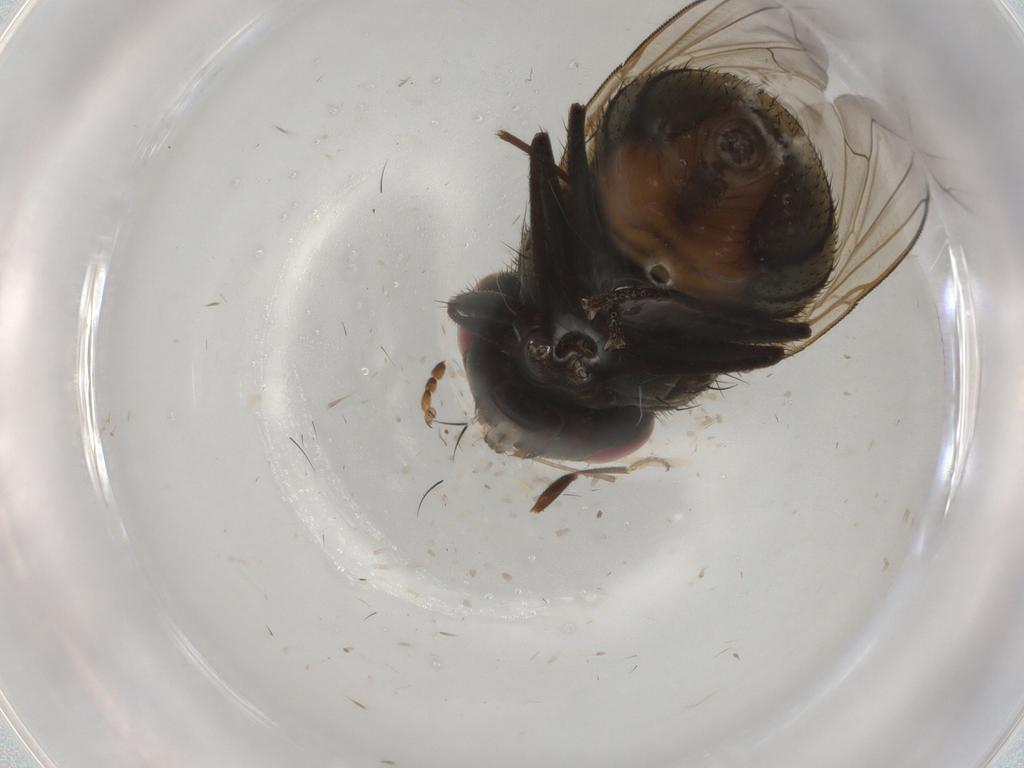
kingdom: Animalia
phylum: Arthropoda
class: Insecta
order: Diptera
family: Muscidae
